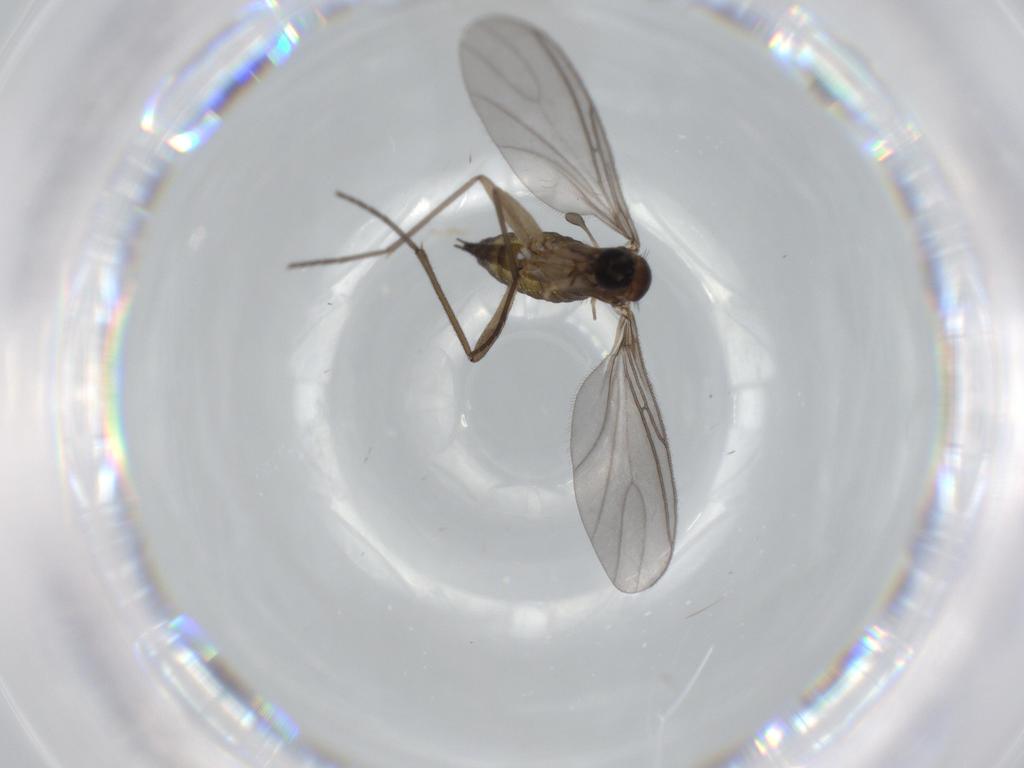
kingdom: Animalia
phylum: Arthropoda
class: Insecta
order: Diptera
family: Sciaridae
